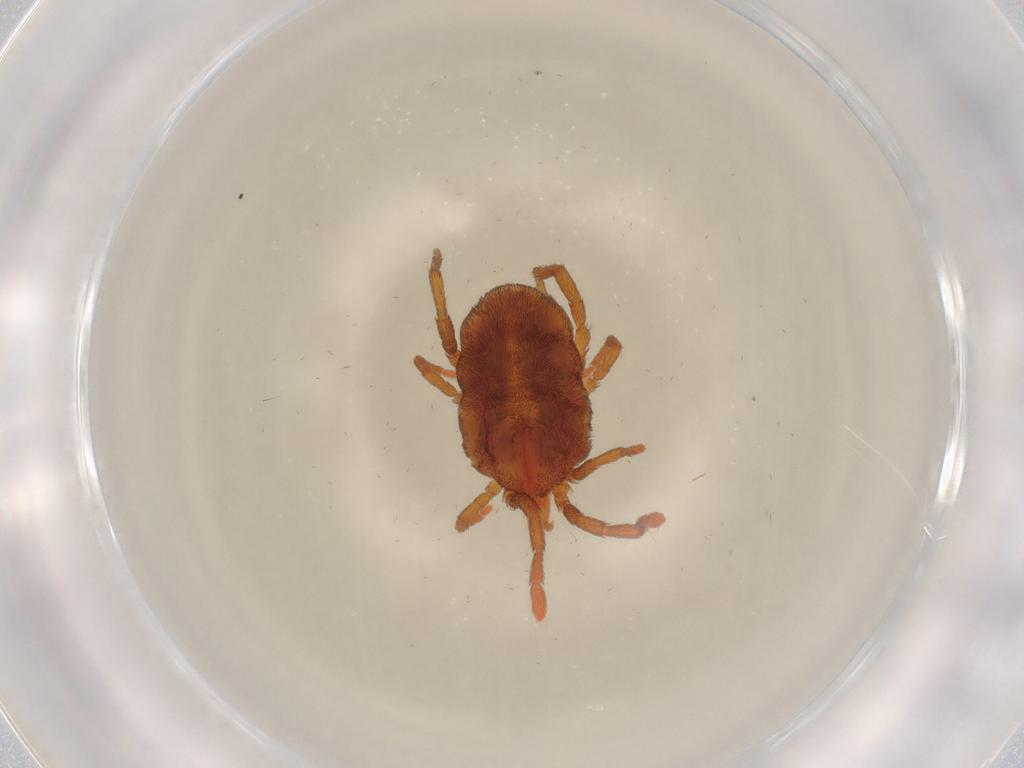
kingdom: Animalia
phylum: Arthropoda
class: Arachnida
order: Trombidiformes
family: Erythraeidae
